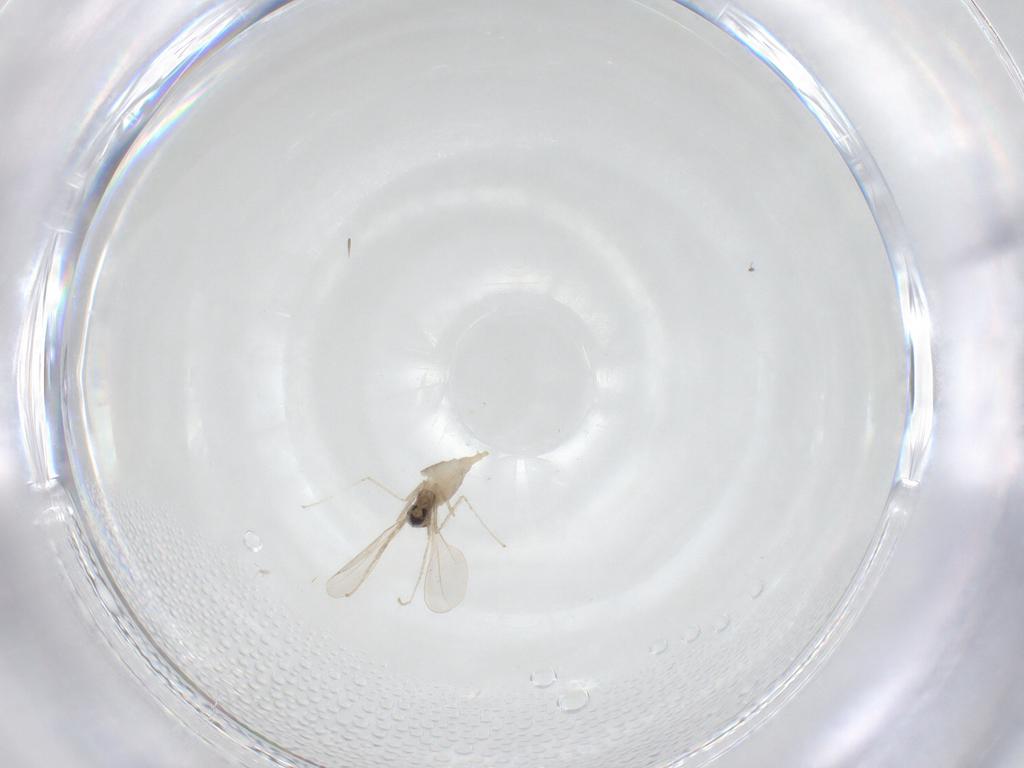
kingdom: Animalia
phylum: Arthropoda
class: Insecta
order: Diptera
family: Cecidomyiidae
